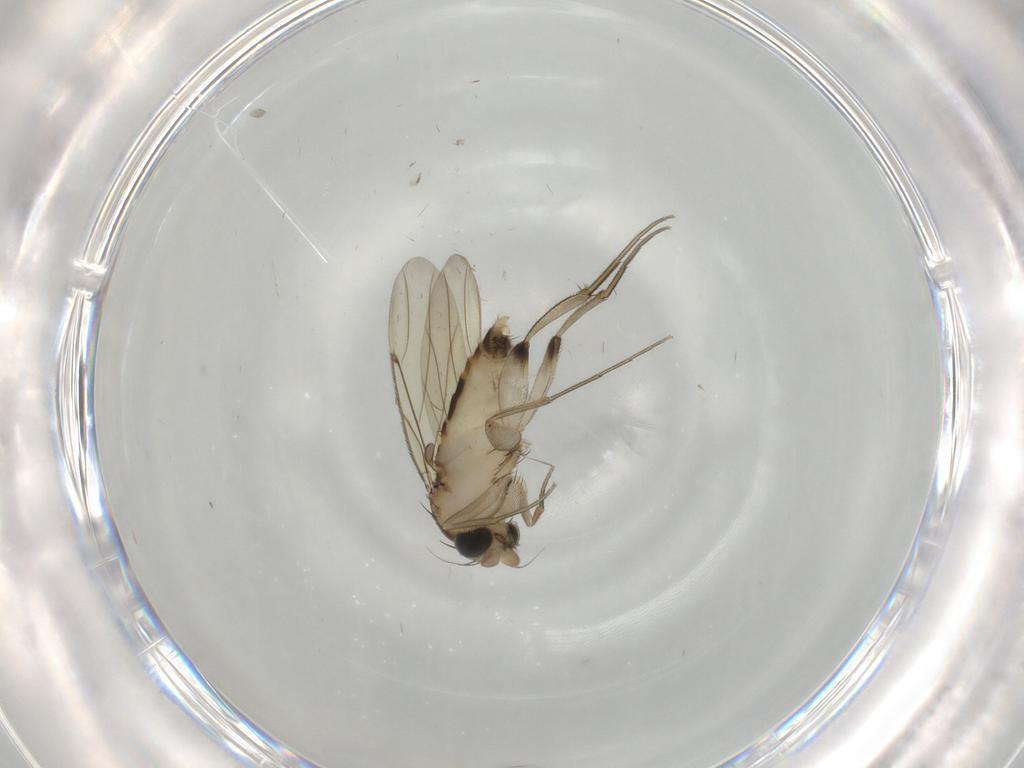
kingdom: Animalia
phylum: Arthropoda
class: Insecta
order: Diptera
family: Phoridae
